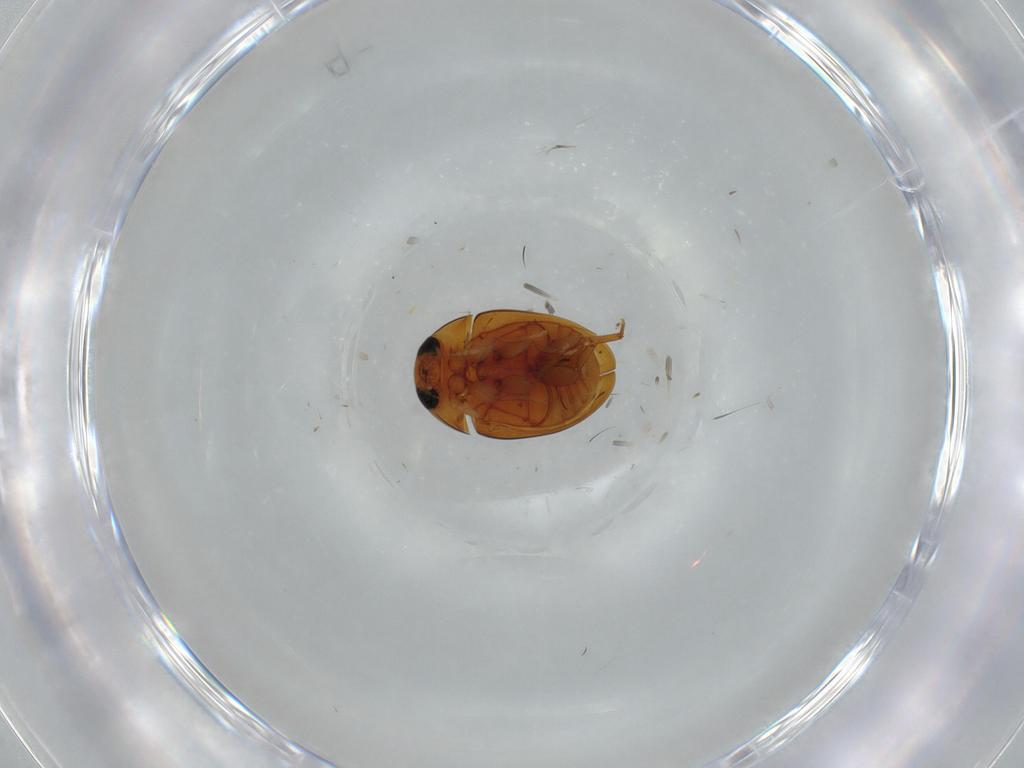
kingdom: Animalia
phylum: Arthropoda
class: Insecta
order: Coleoptera
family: Staphylinidae
